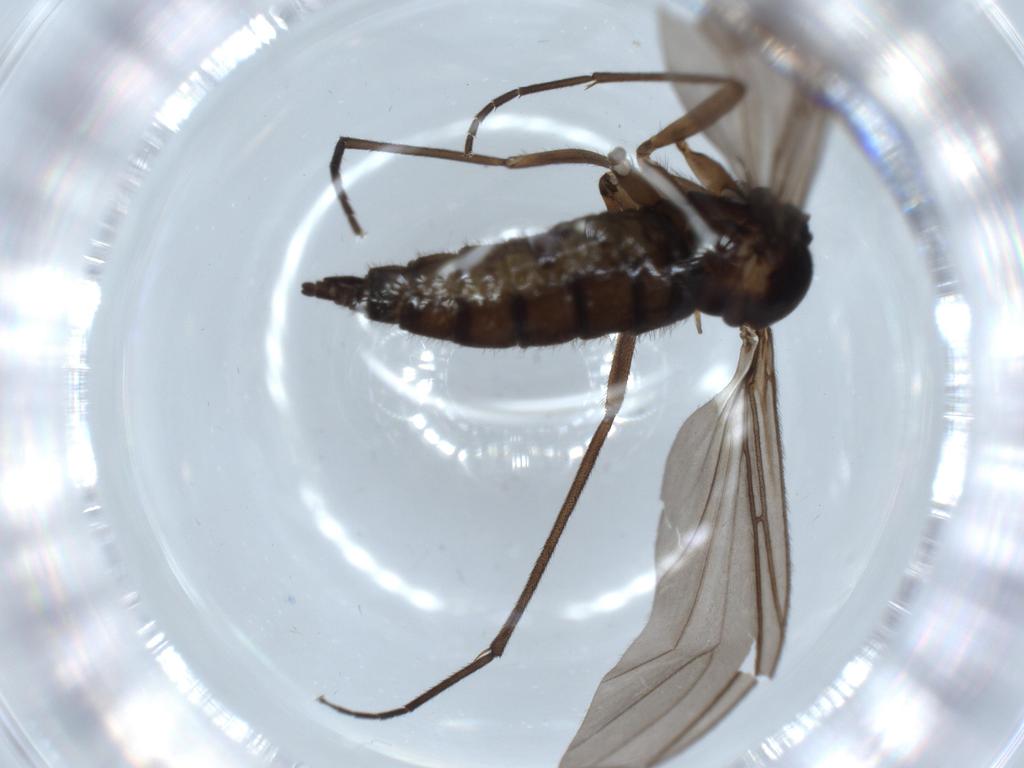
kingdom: Animalia
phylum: Arthropoda
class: Insecta
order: Diptera
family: Sciaridae
